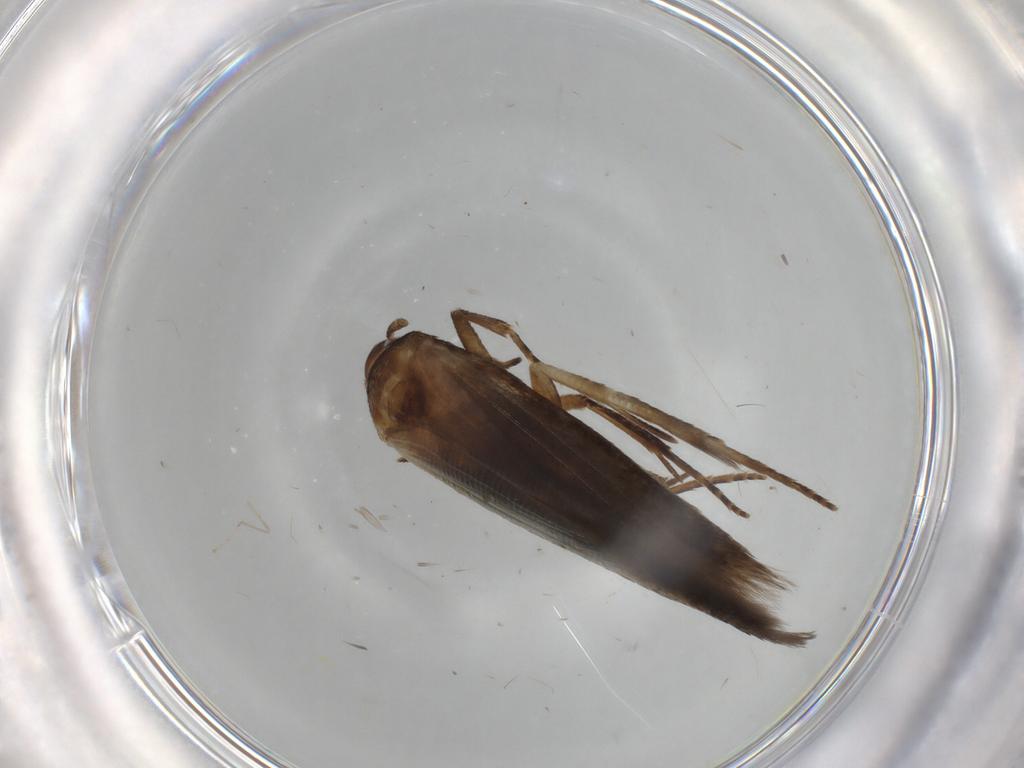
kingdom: Animalia
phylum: Arthropoda
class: Insecta
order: Lepidoptera
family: Cosmopterigidae
